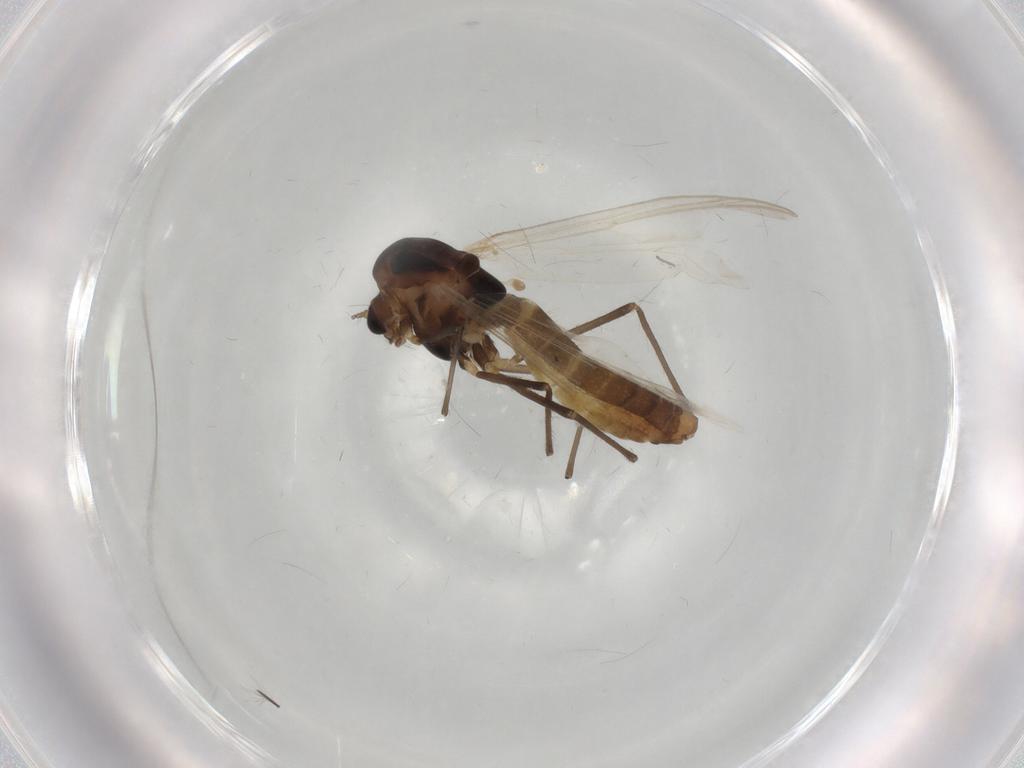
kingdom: Animalia
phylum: Arthropoda
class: Insecta
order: Diptera
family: Chironomidae
